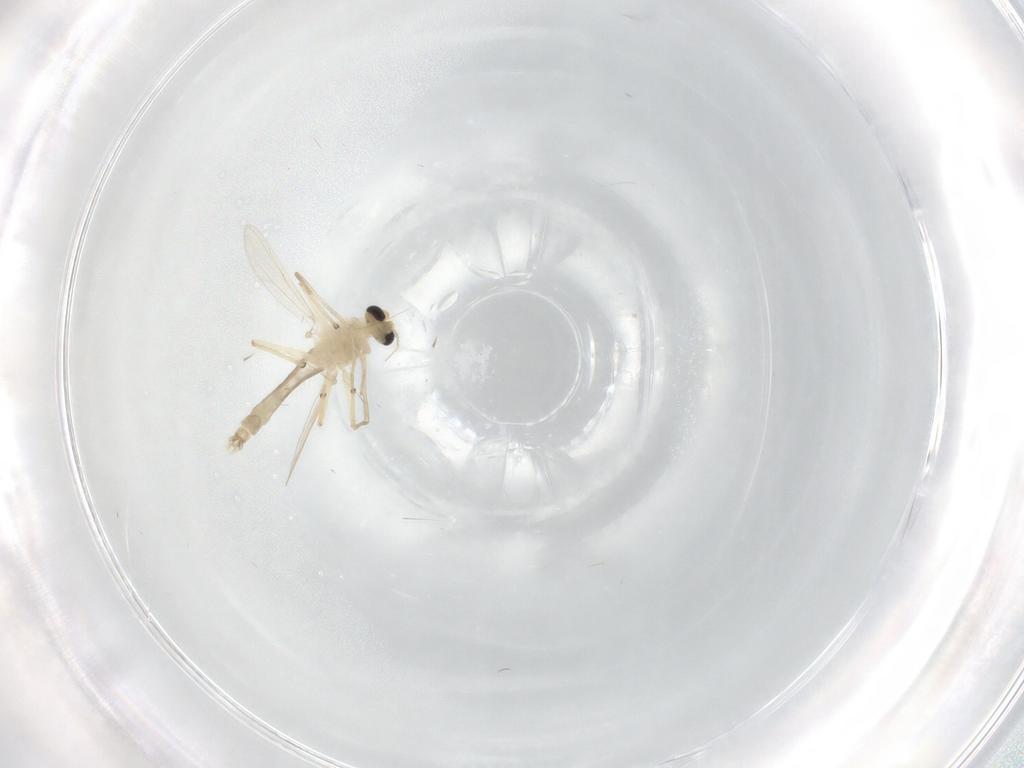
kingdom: Animalia
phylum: Arthropoda
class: Insecta
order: Diptera
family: Chironomidae
